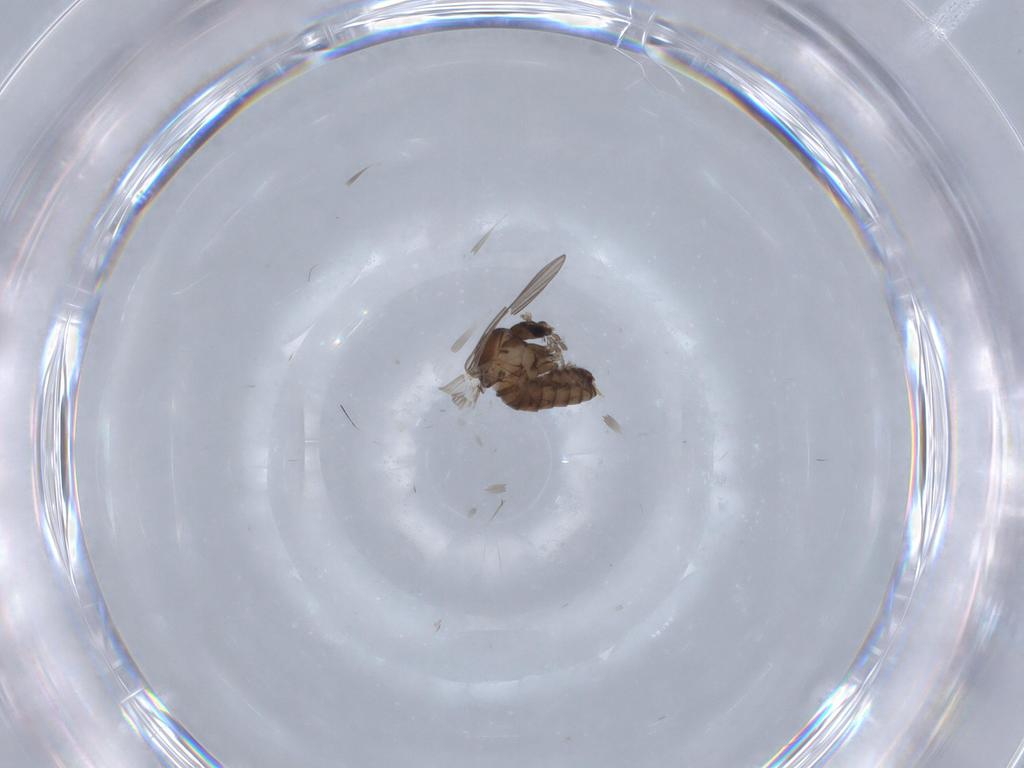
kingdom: Animalia
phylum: Arthropoda
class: Insecta
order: Diptera
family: Psychodidae
